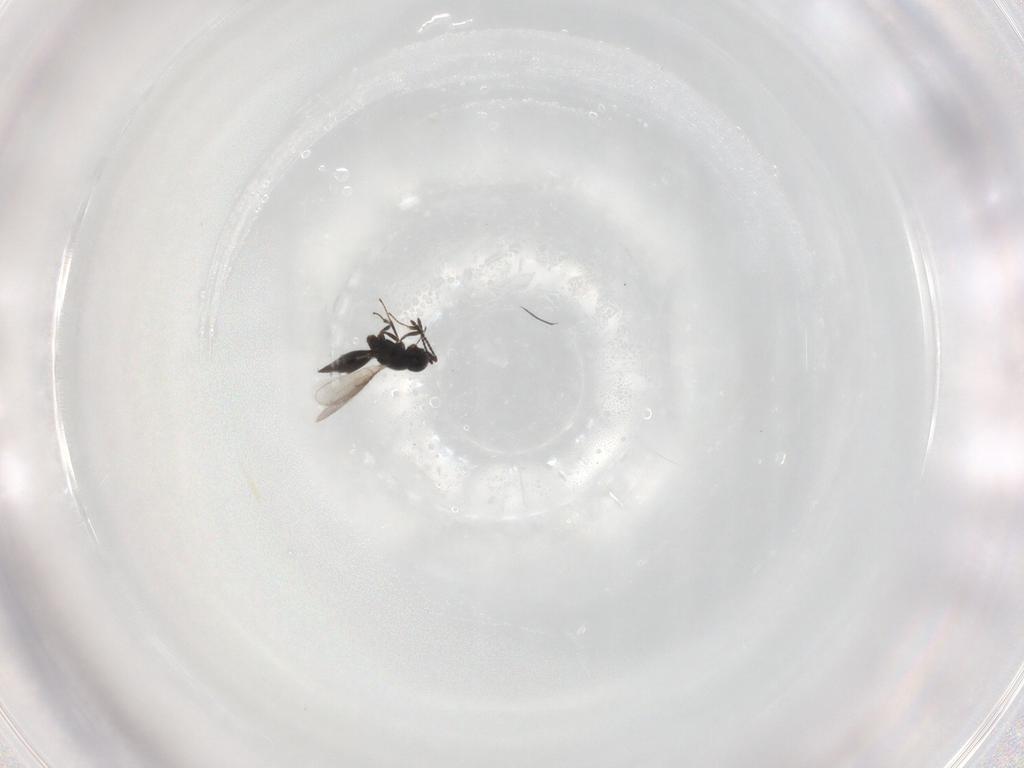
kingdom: Animalia
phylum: Arthropoda
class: Insecta
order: Hymenoptera
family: Scelionidae
